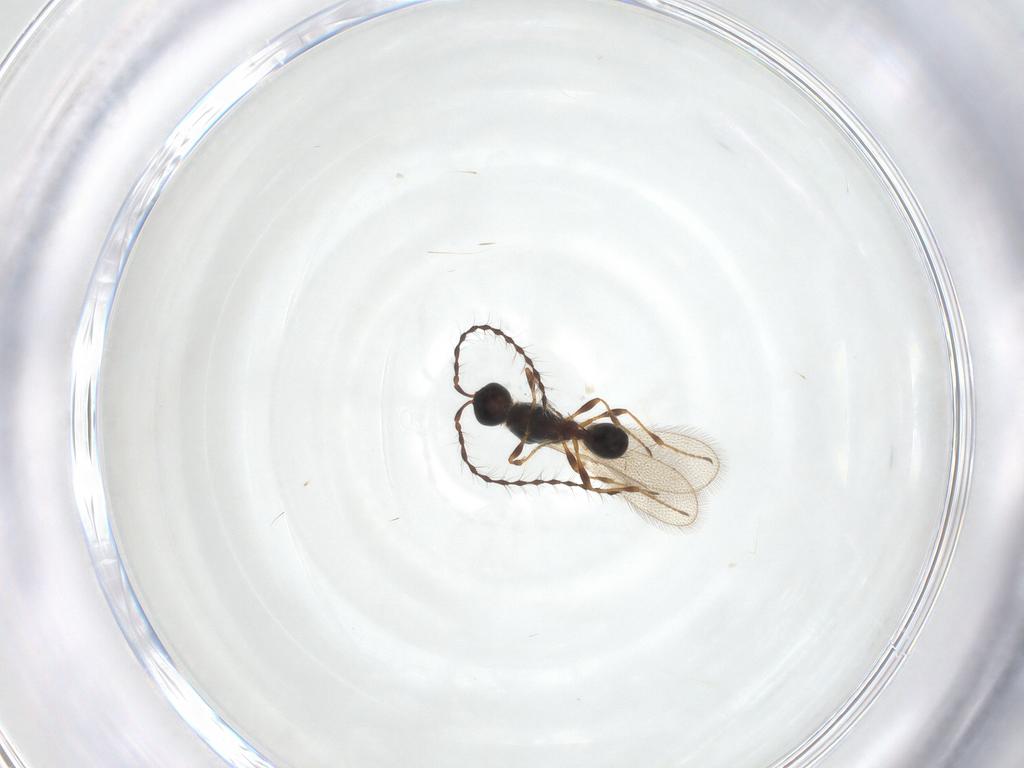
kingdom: Animalia
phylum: Arthropoda
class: Insecta
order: Hymenoptera
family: Diapriidae
